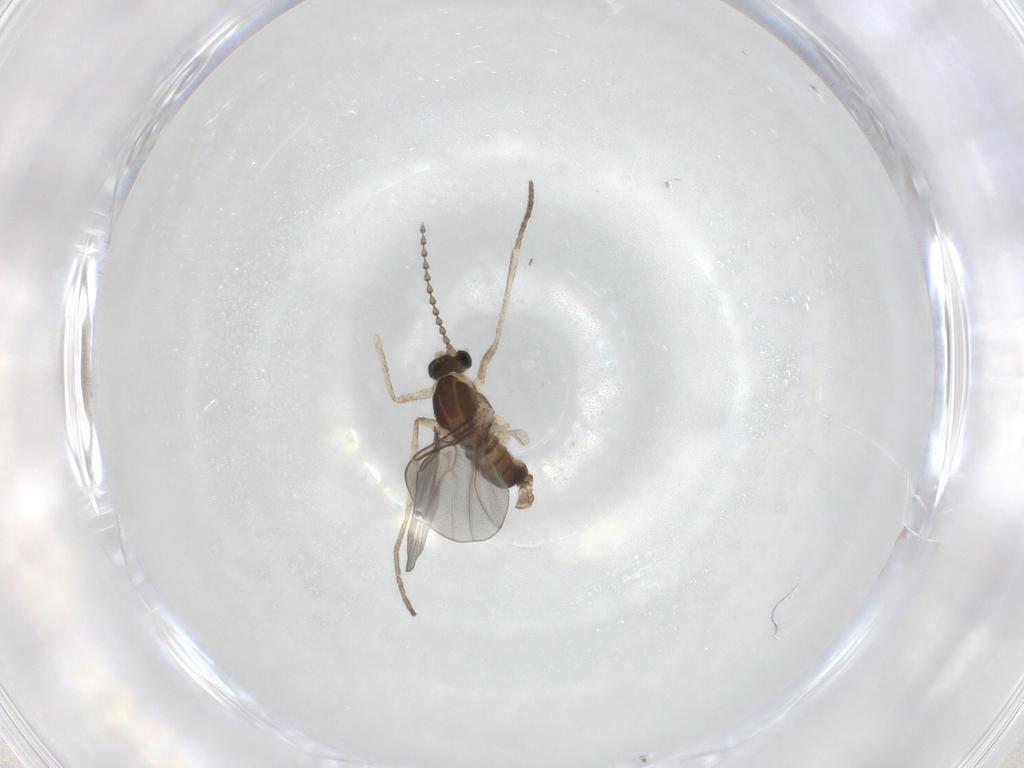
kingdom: Animalia
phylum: Arthropoda
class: Insecta
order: Diptera
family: Cecidomyiidae
